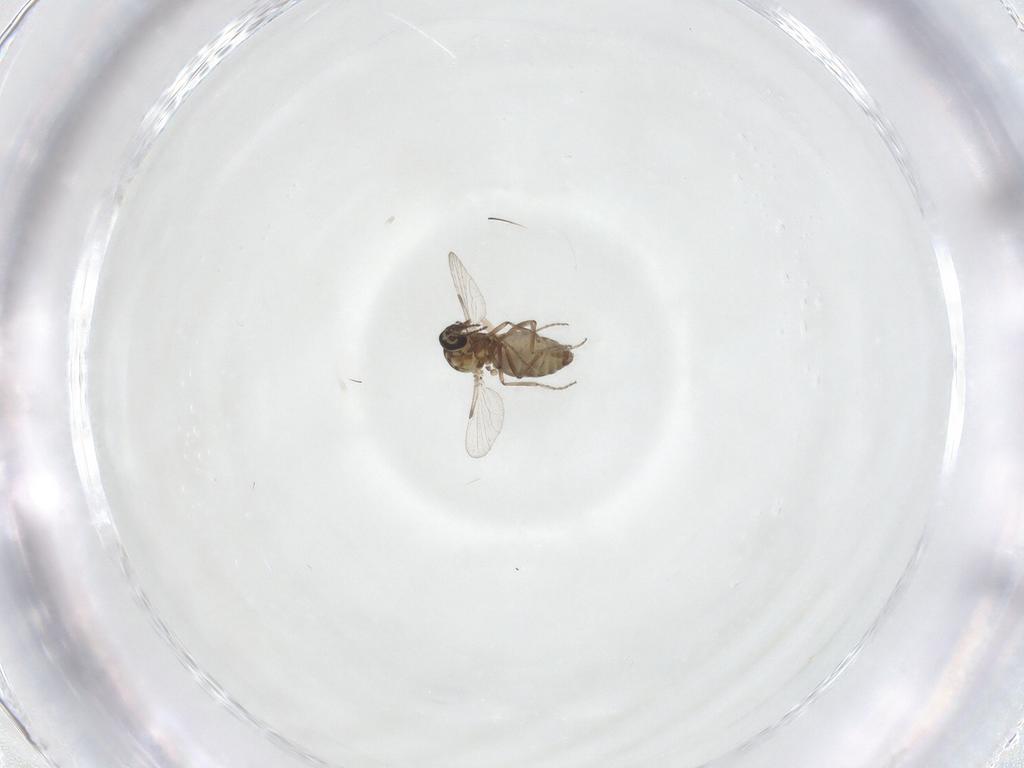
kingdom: Animalia
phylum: Arthropoda
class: Insecta
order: Diptera
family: Ceratopogonidae
